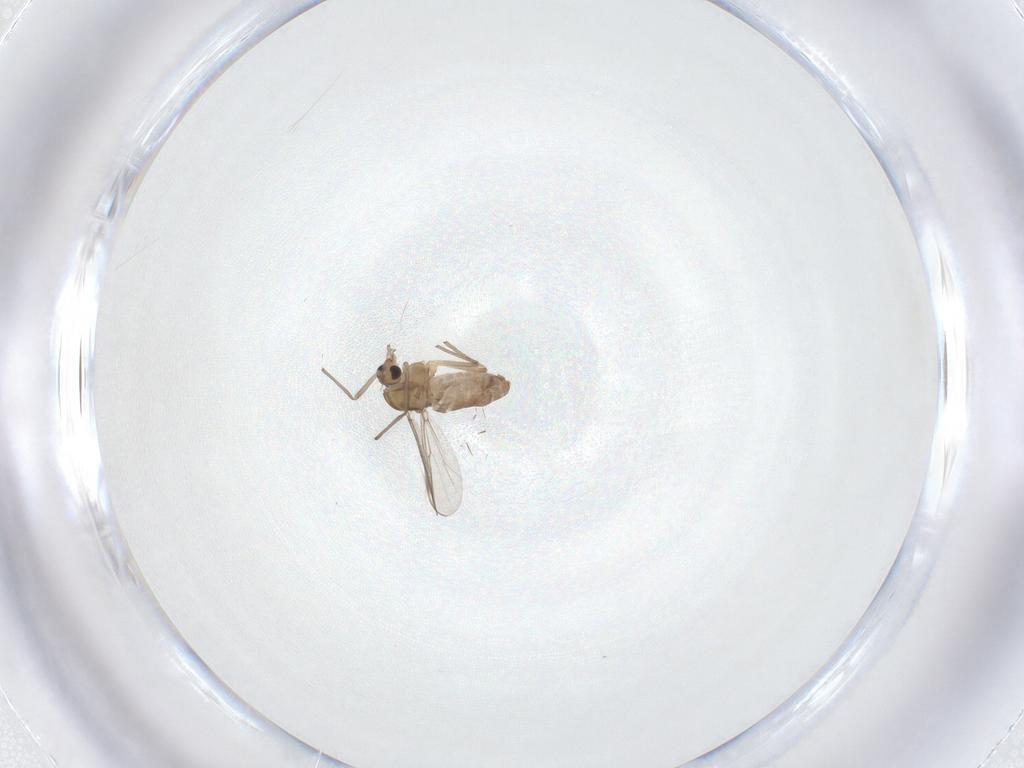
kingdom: Animalia
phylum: Arthropoda
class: Insecta
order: Diptera
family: Chironomidae
